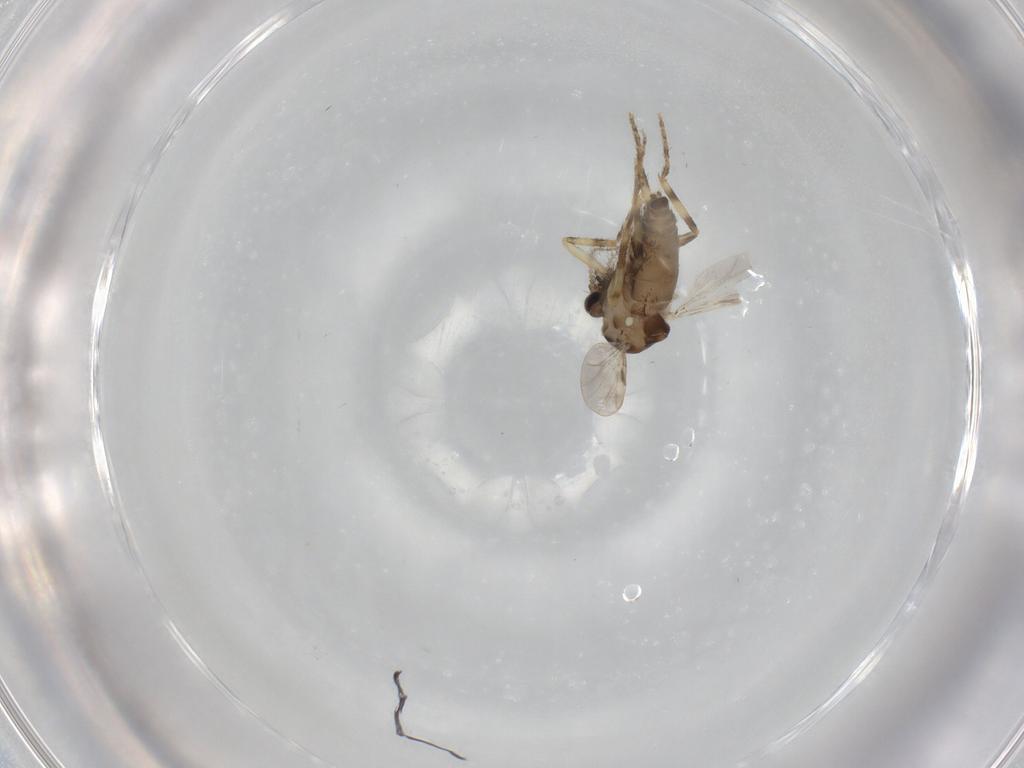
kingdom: Animalia
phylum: Arthropoda
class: Insecta
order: Diptera
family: Ceratopogonidae
